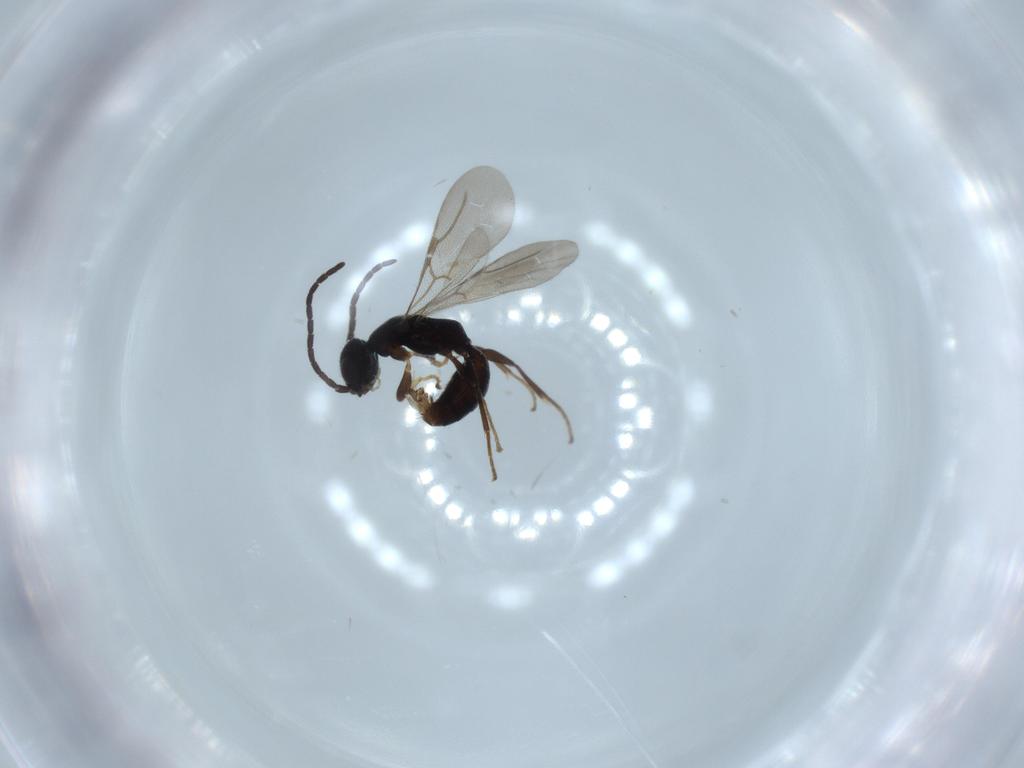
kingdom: Animalia
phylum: Arthropoda
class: Insecta
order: Hymenoptera
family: Bethylidae
